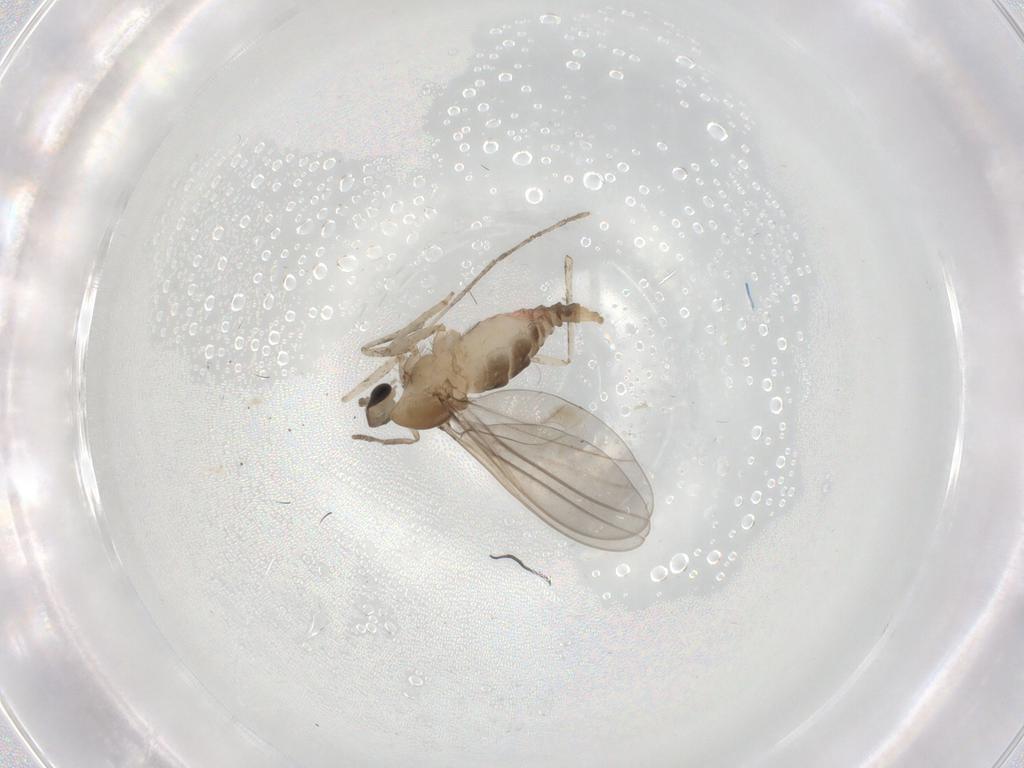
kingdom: Animalia
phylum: Arthropoda
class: Insecta
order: Diptera
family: Psychodidae
